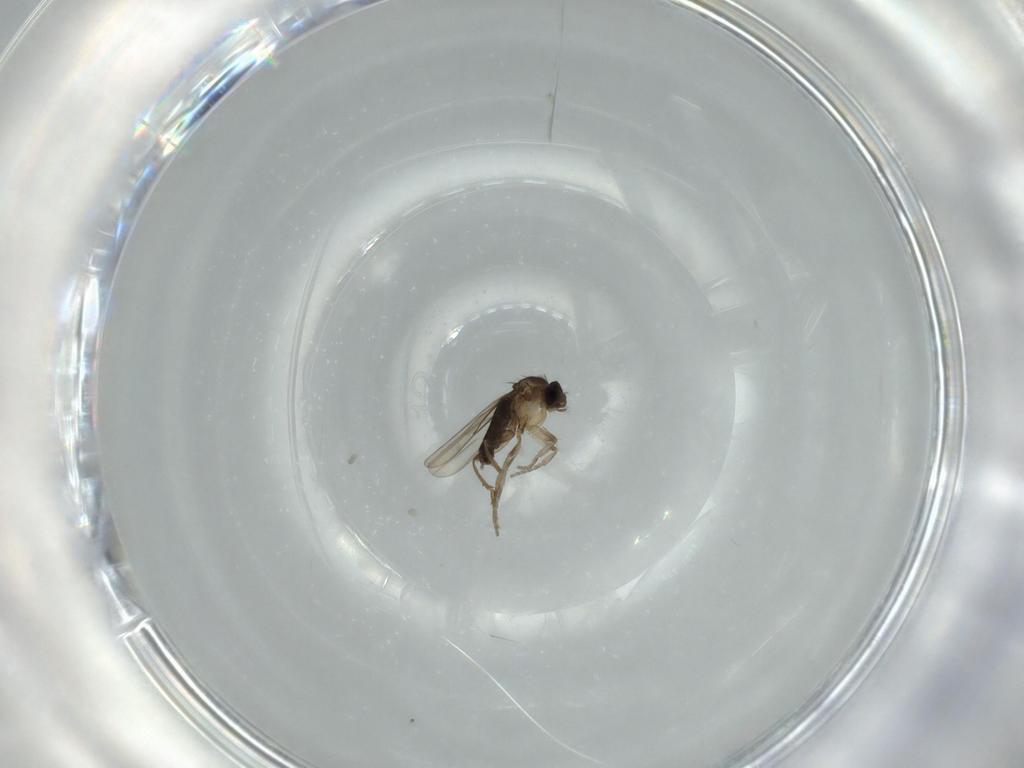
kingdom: Animalia
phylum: Arthropoda
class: Insecta
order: Diptera
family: Phoridae
